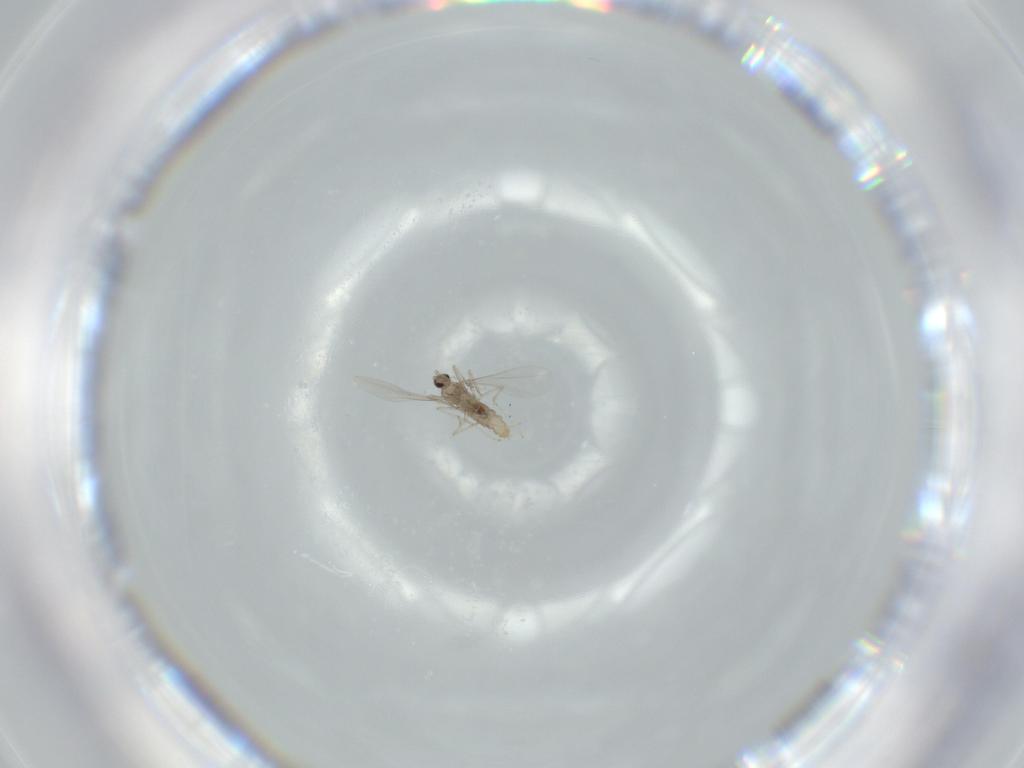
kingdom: Animalia
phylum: Arthropoda
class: Insecta
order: Diptera
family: Cecidomyiidae
